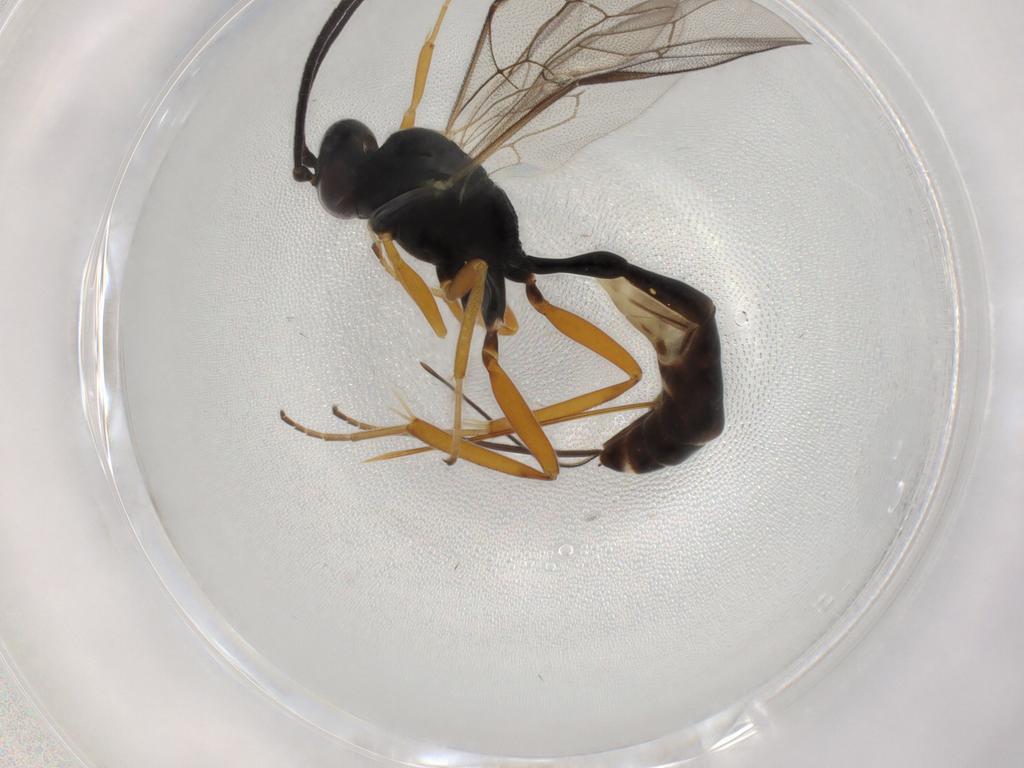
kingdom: Animalia
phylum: Arthropoda
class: Insecta
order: Hymenoptera
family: Ichneumonidae
